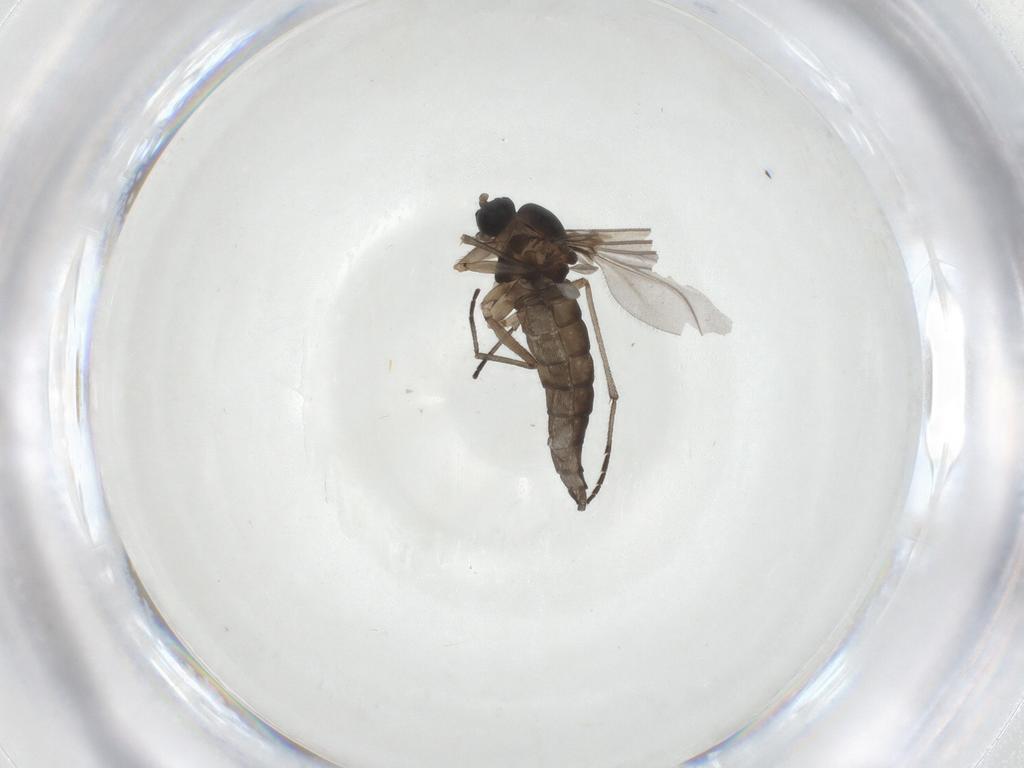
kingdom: Animalia
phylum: Arthropoda
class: Insecta
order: Diptera
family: Sciaridae
